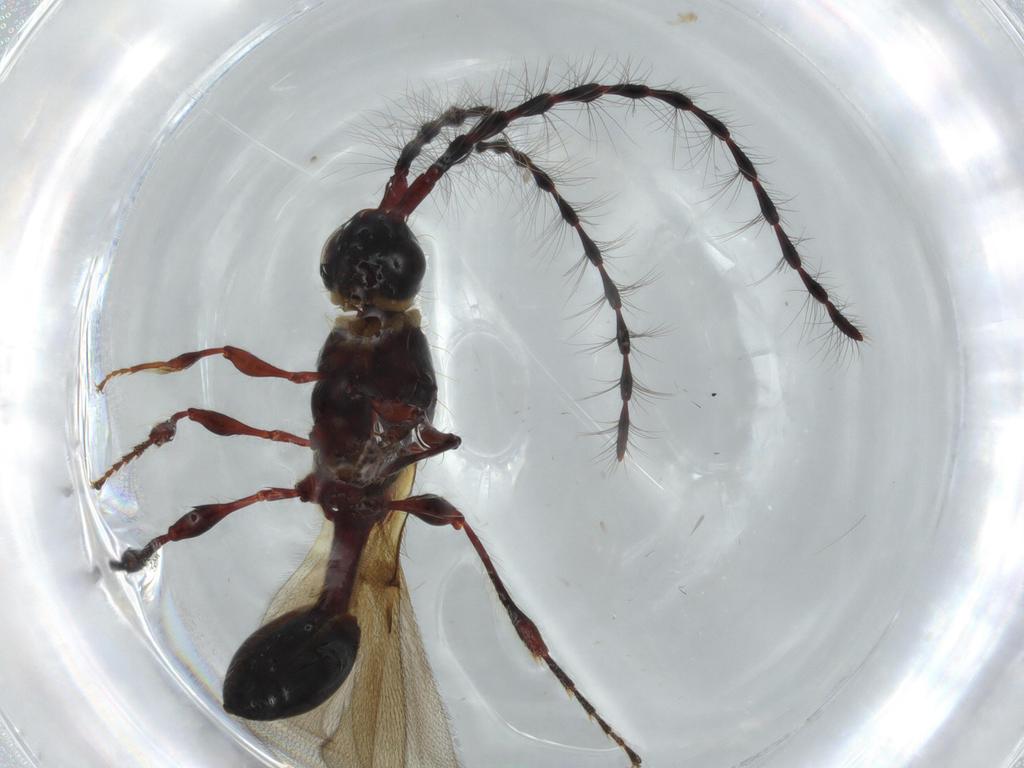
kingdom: Animalia
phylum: Arthropoda
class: Insecta
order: Hymenoptera
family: Diapriidae
